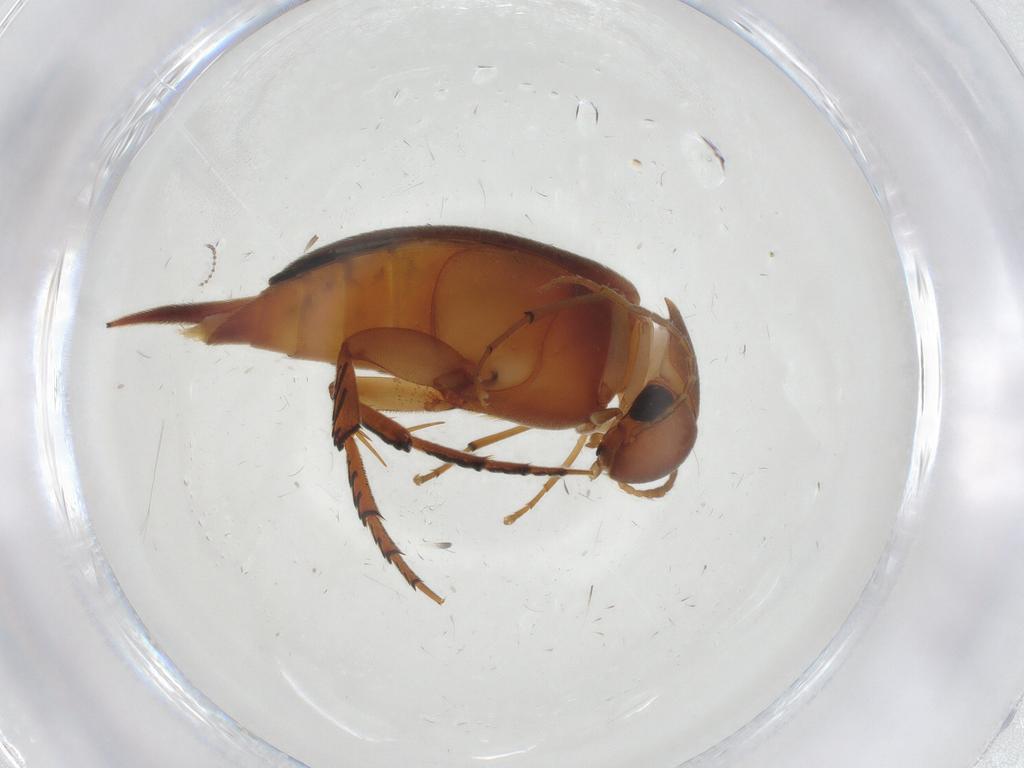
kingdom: Animalia
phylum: Arthropoda
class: Insecta
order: Coleoptera
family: Mordellidae
